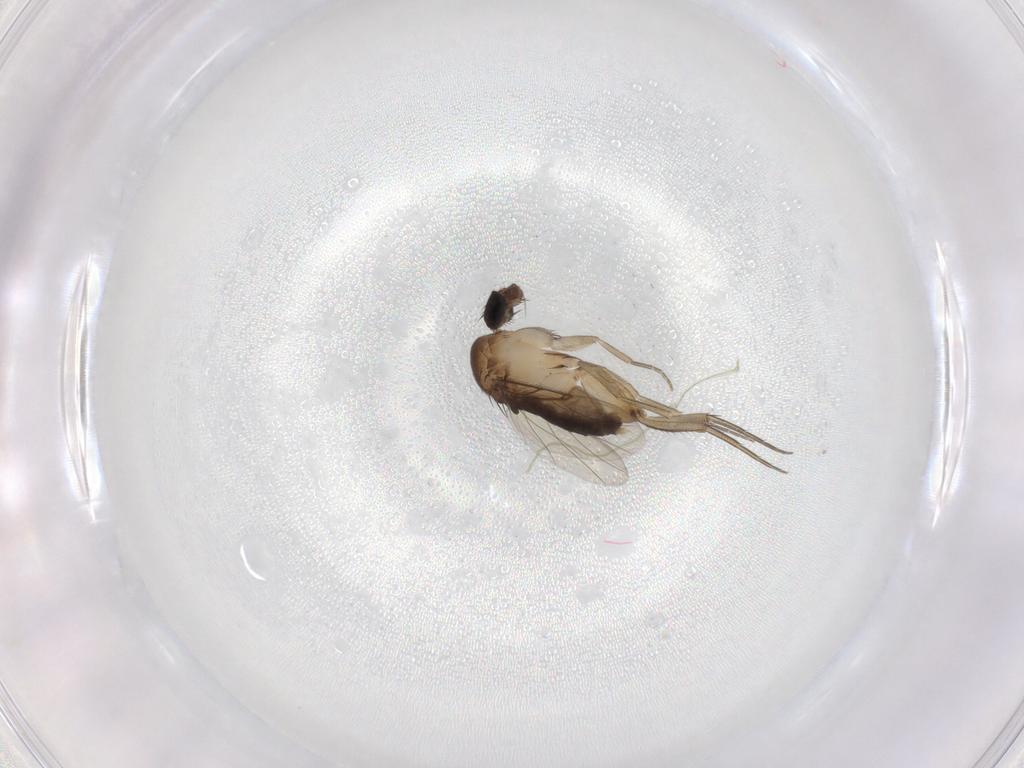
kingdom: Animalia
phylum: Arthropoda
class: Insecta
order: Diptera
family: Phoridae
